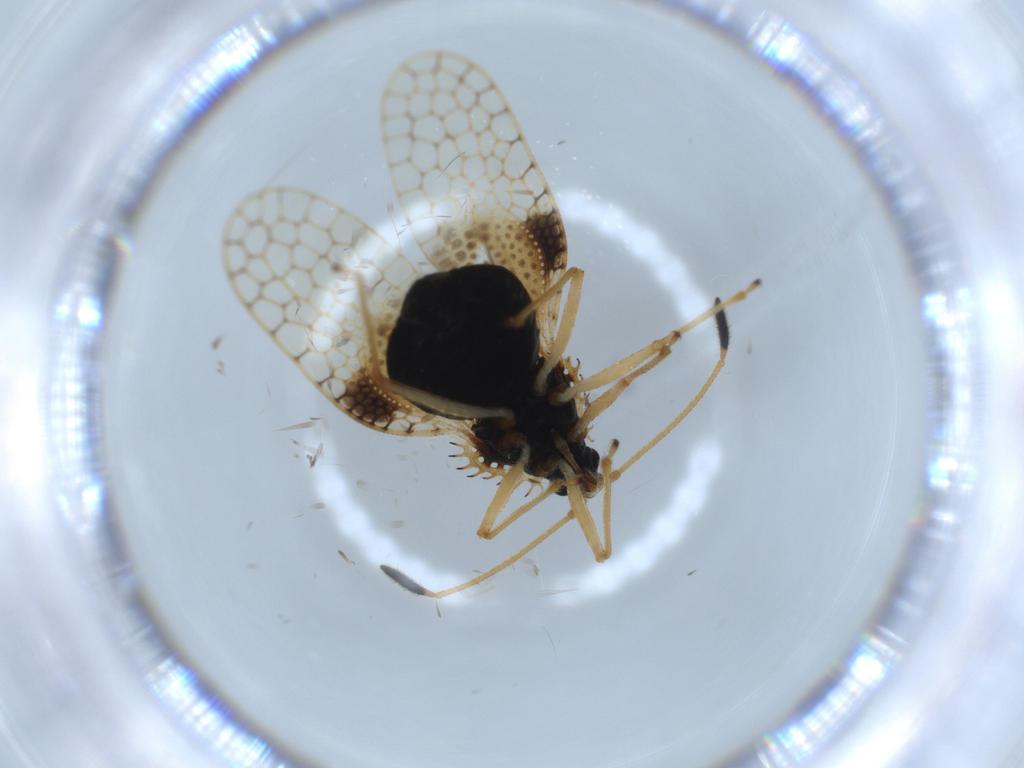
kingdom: Animalia
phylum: Arthropoda
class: Insecta
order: Hemiptera
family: Tingidae
